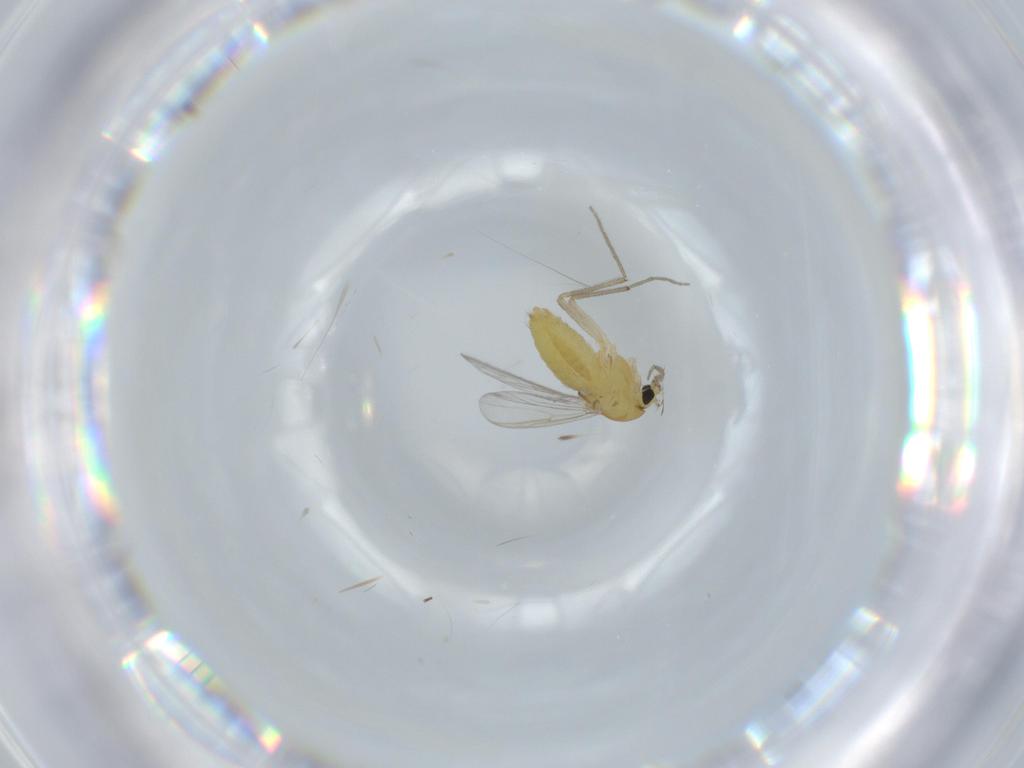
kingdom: Animalia
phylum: Arthropoda
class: Insecta
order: Diptera
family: Chironomidae
